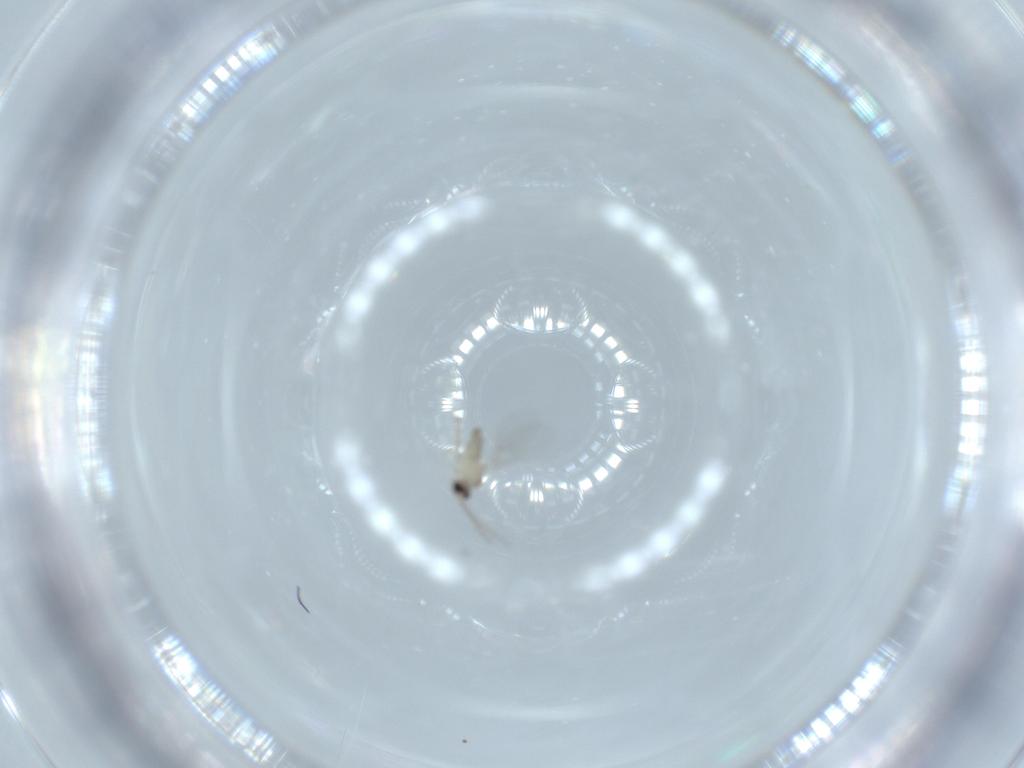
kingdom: Animalia
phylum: Arthropoda
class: Insecta
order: Diptera
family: Cecidomyiidae
